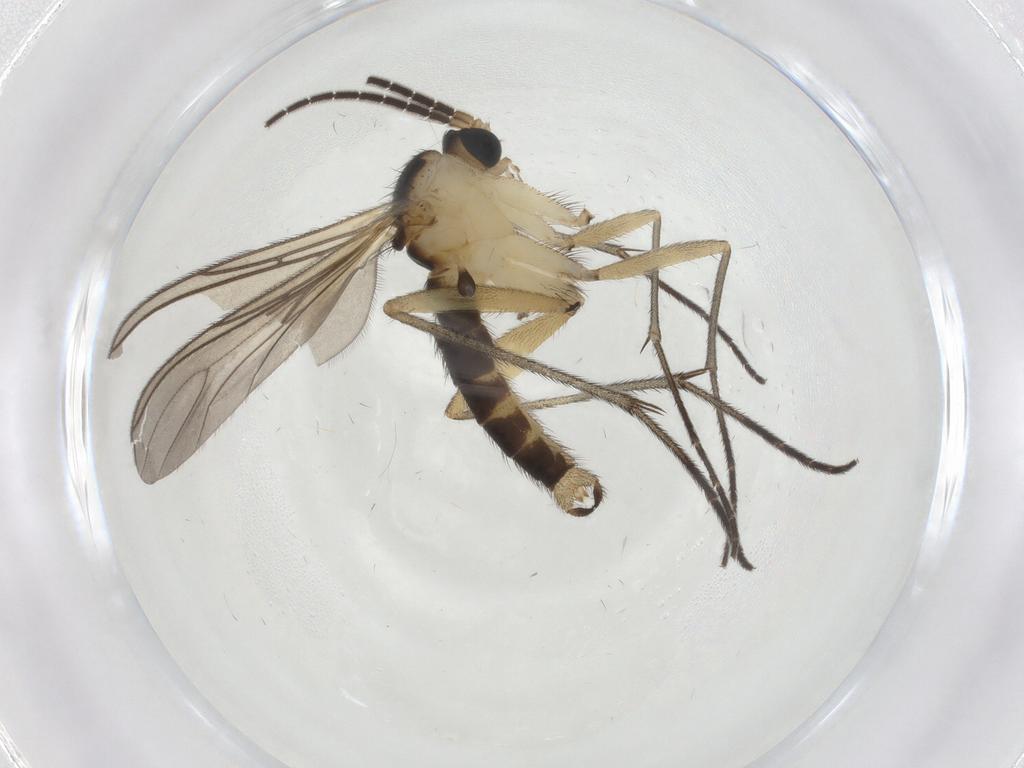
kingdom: Animalia
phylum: Arthropoda
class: Insecta
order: Diptera
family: Sciaridae
